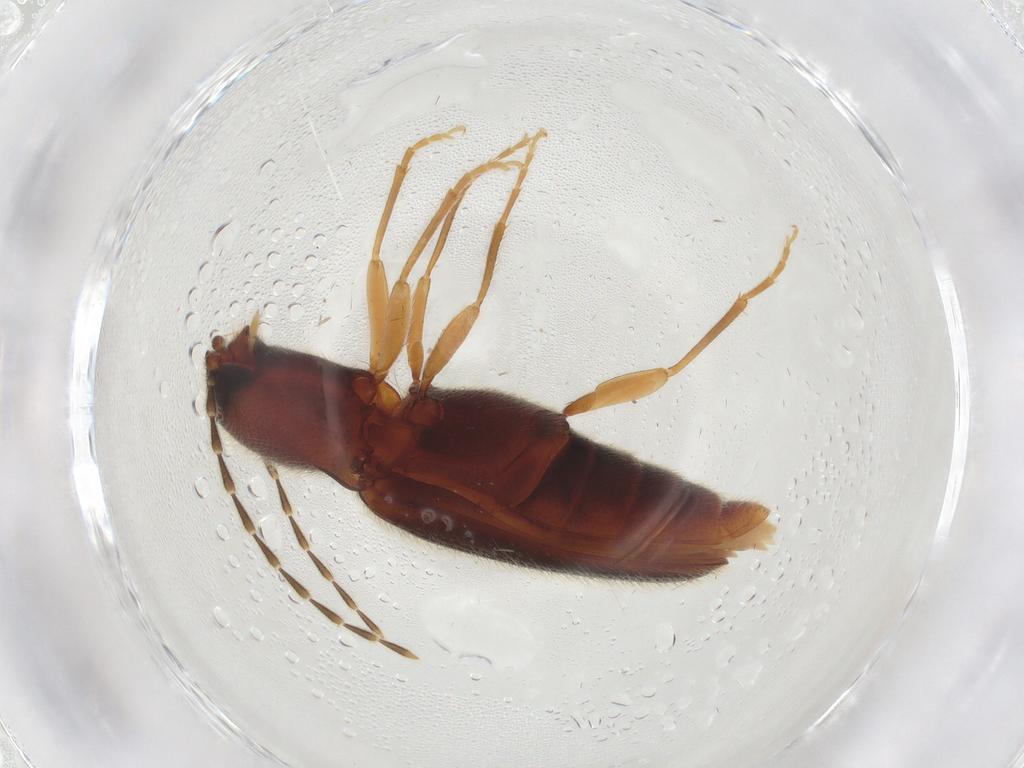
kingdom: Animalia
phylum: Arthropoda
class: Insecta
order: Coleoptera
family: Elateridae
